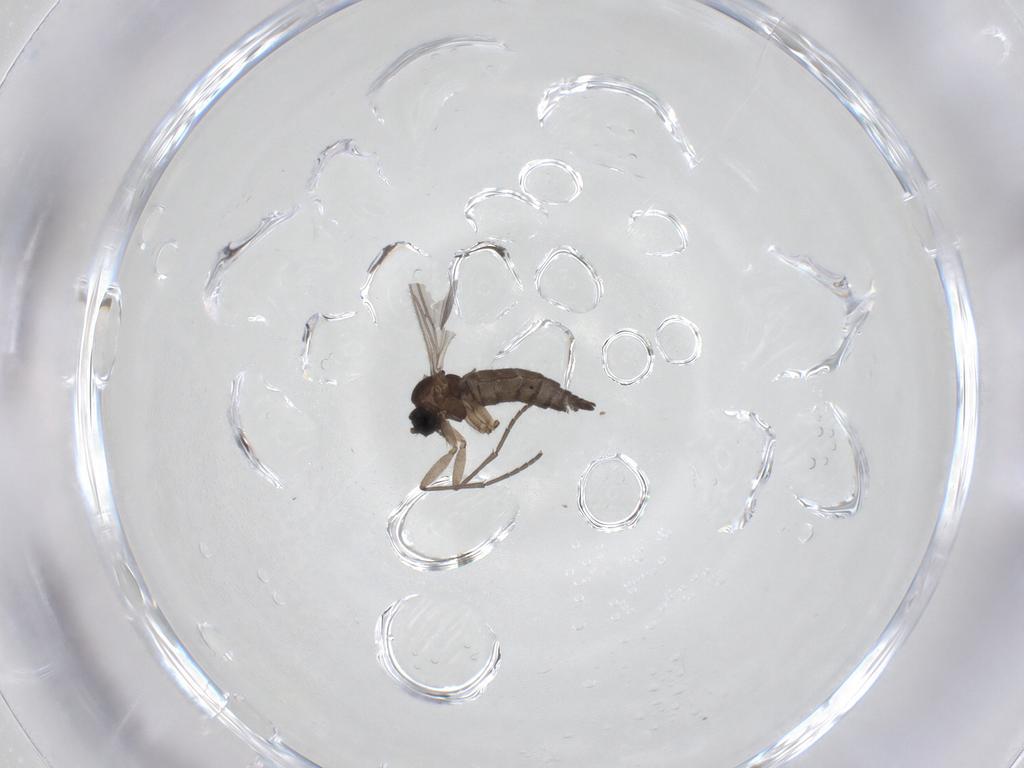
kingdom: Animalia
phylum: Arthropoda
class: Insecta
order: Diptera
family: Sciaridae
